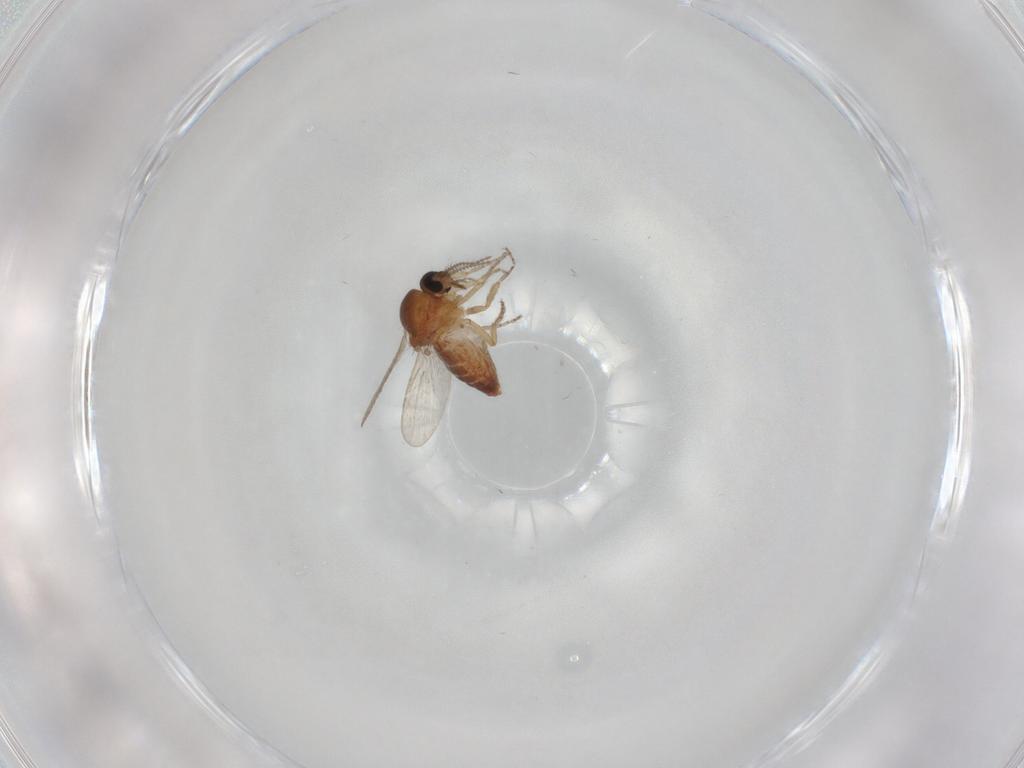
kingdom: Animalia
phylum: Arthropoda
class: Insecta
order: Diptera
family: Ceratopogonidae
